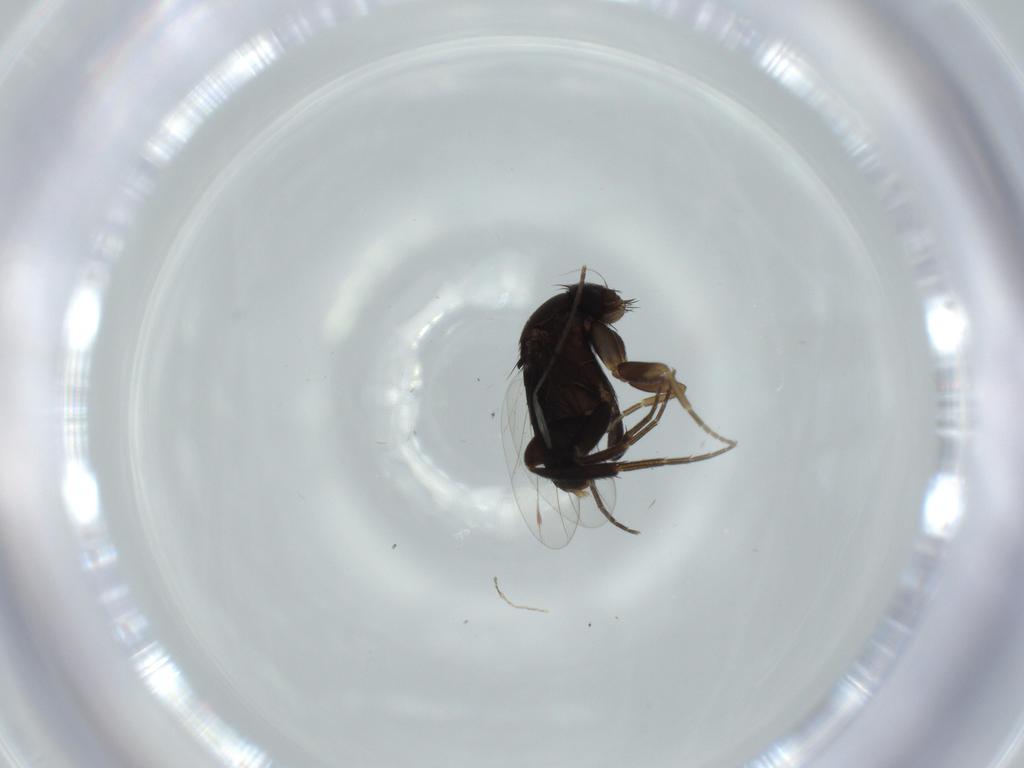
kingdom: Animalia
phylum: Arthropoda
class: Insecta
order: Diptera
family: Phoridae
